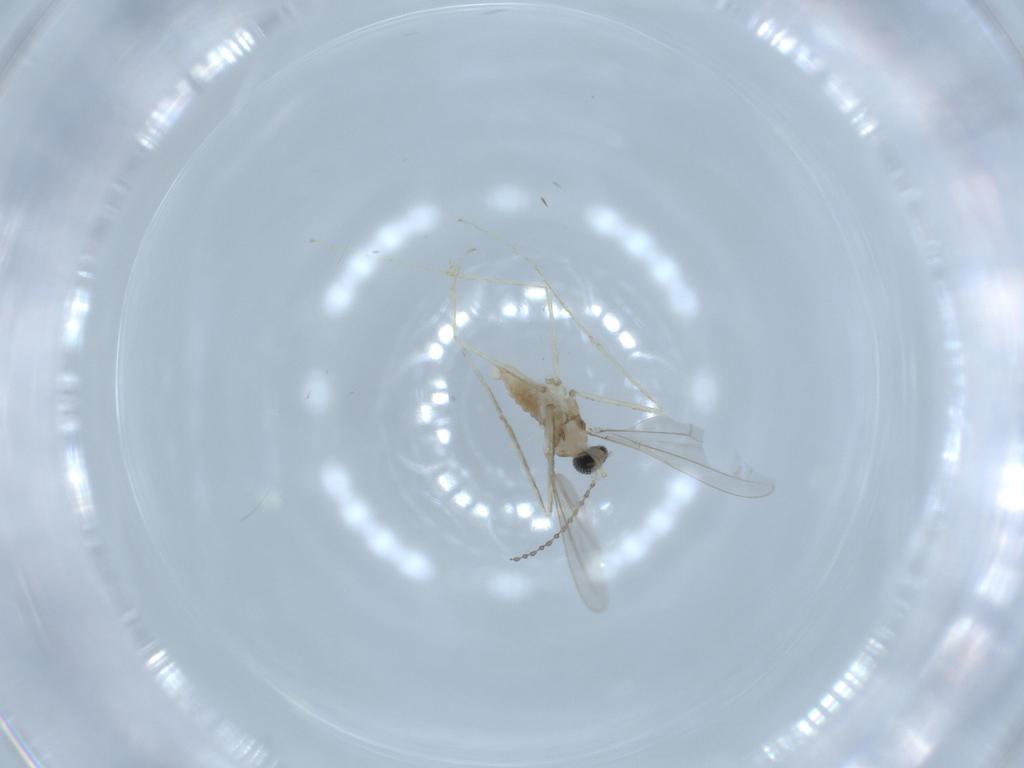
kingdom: Animalia
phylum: Arthropoda
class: Insecta
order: Diptera
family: Cecidomyiidae
